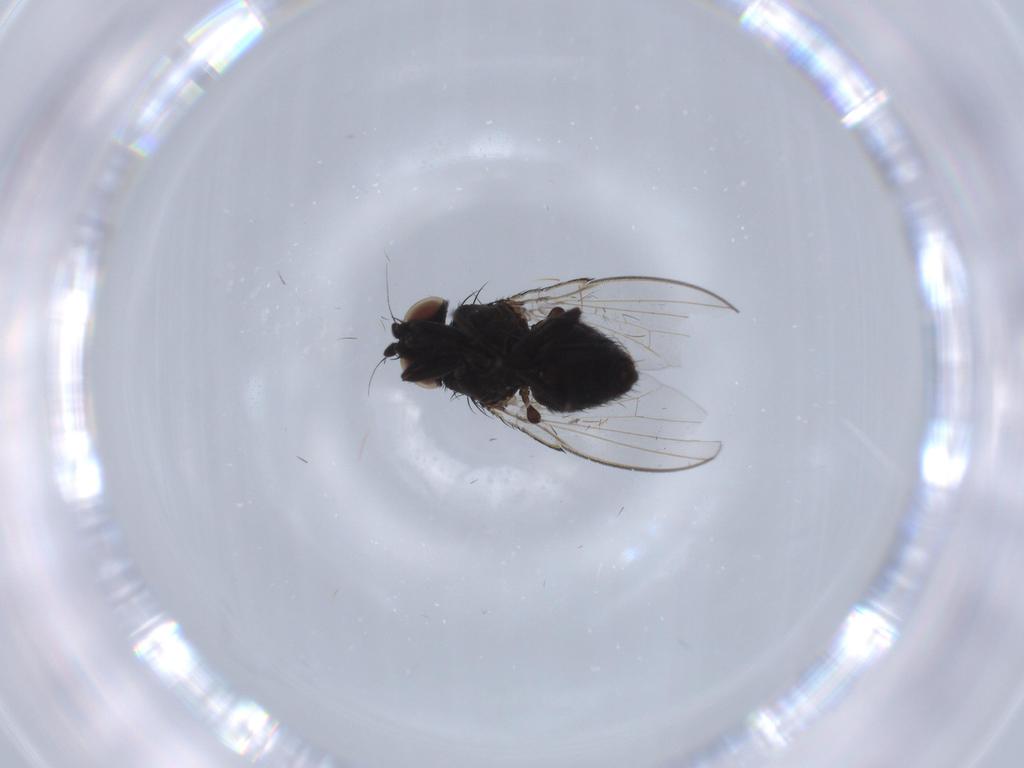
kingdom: Animalia
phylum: Arthropoda
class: Insecta
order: Diptera
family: Milichiidae
